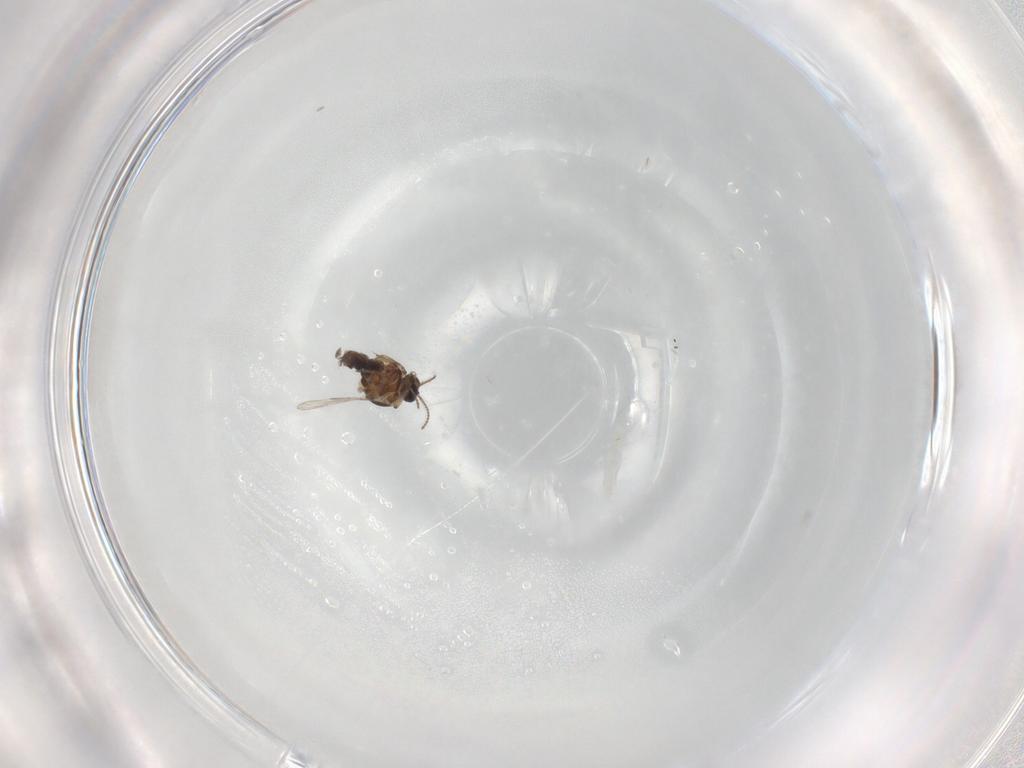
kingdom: Animalia
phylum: Arthropoda
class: Insecta
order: Diptera
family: Ceratopogonidae
